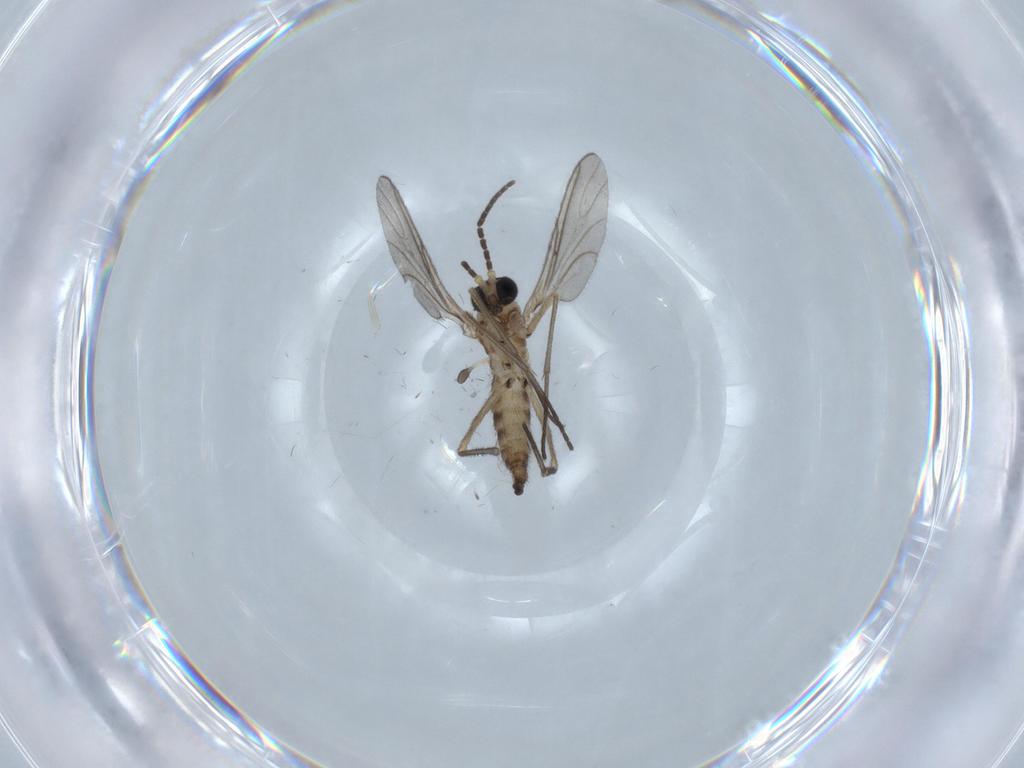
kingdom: Animalia
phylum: Arthropoda
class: Insecta
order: Diptera
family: Sciaridae
